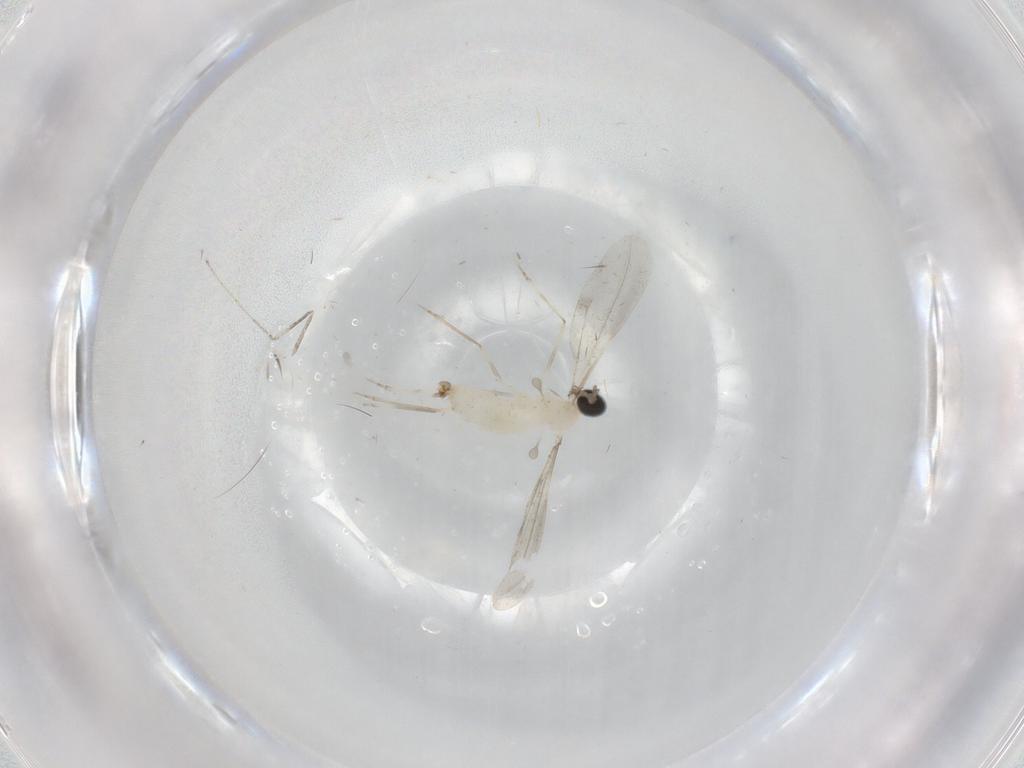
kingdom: Animalia
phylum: Arthropoda
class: Insecta
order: Diptera
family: Cecidomyiidae
